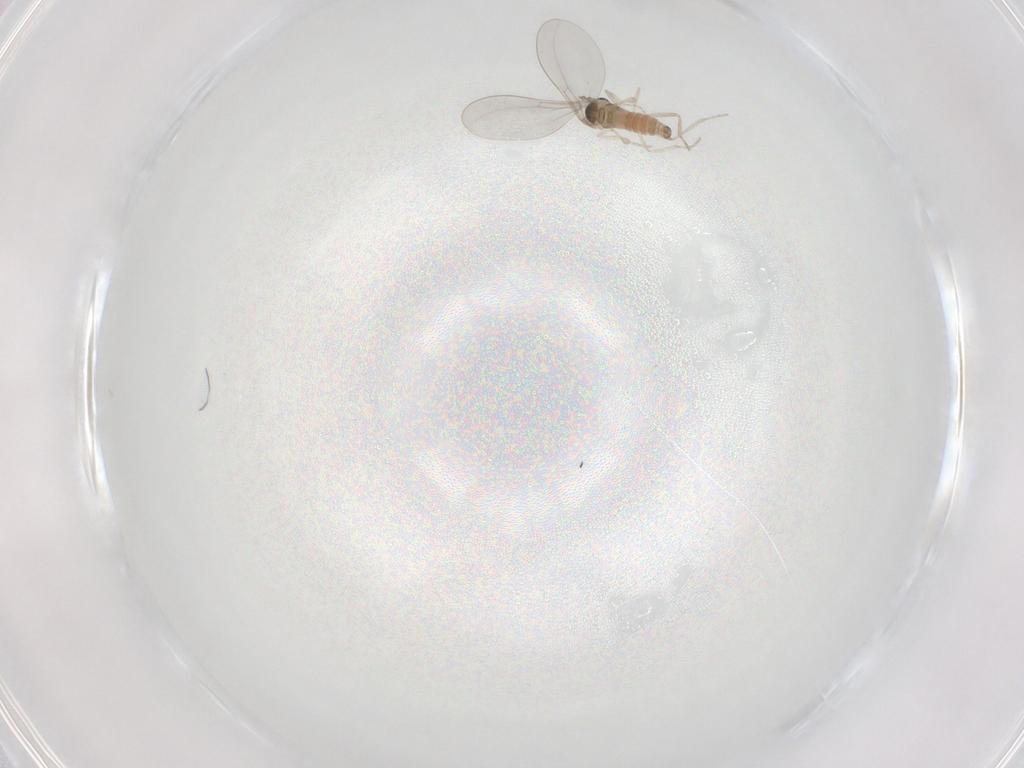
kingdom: Animalia
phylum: Arthropoda
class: Insecta
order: Diptera
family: Cecidomyiidae
